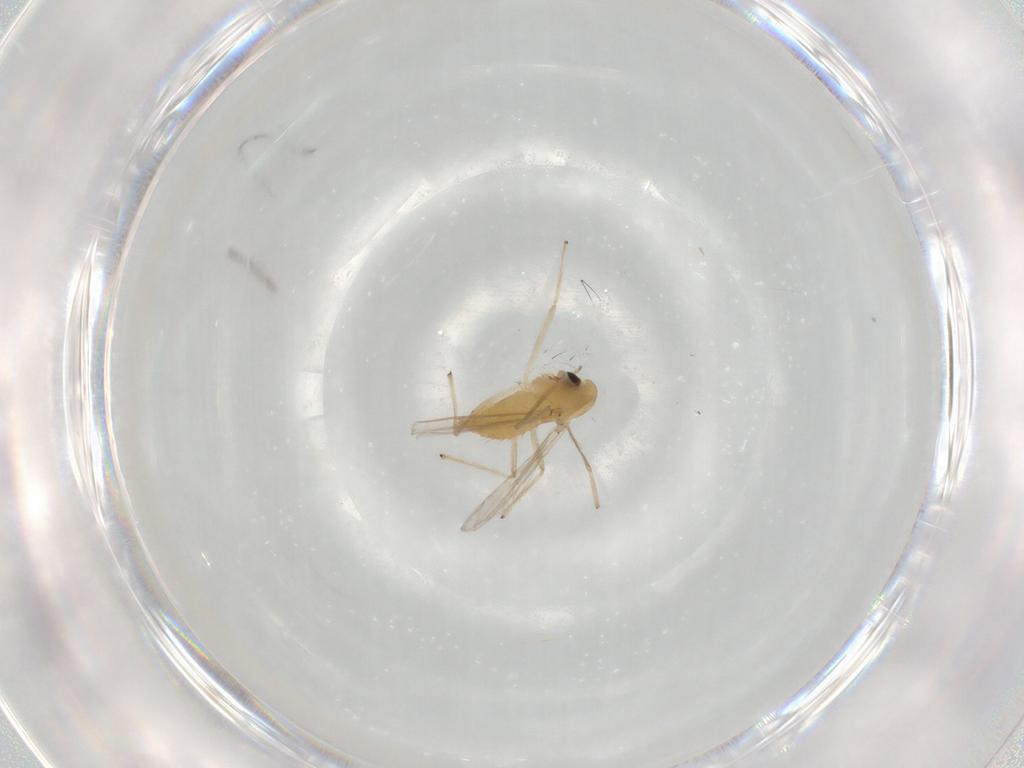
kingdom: Animalia
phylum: Arthropoda
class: Insecta
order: Diptera
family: Chironomidae
